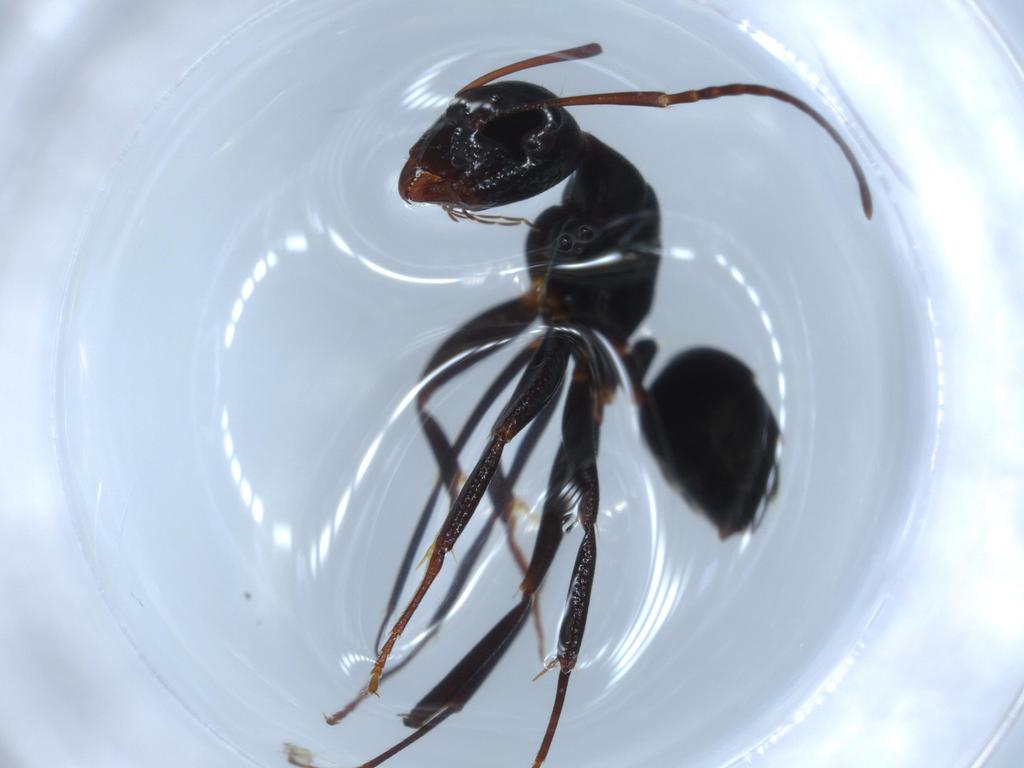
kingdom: Animalia
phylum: Arthropoda
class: Insecta
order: Hymenoptera
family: Formicidae
